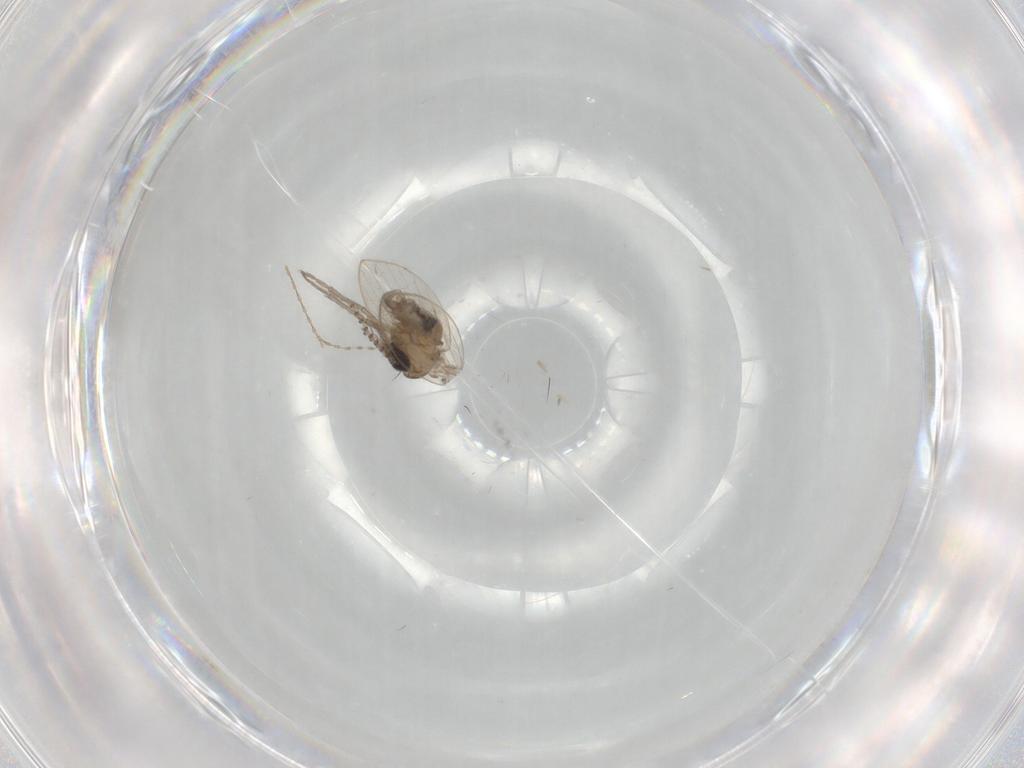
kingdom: Animalia
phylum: Arthropoda
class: Insecta
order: Diptera
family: Psychodidae
